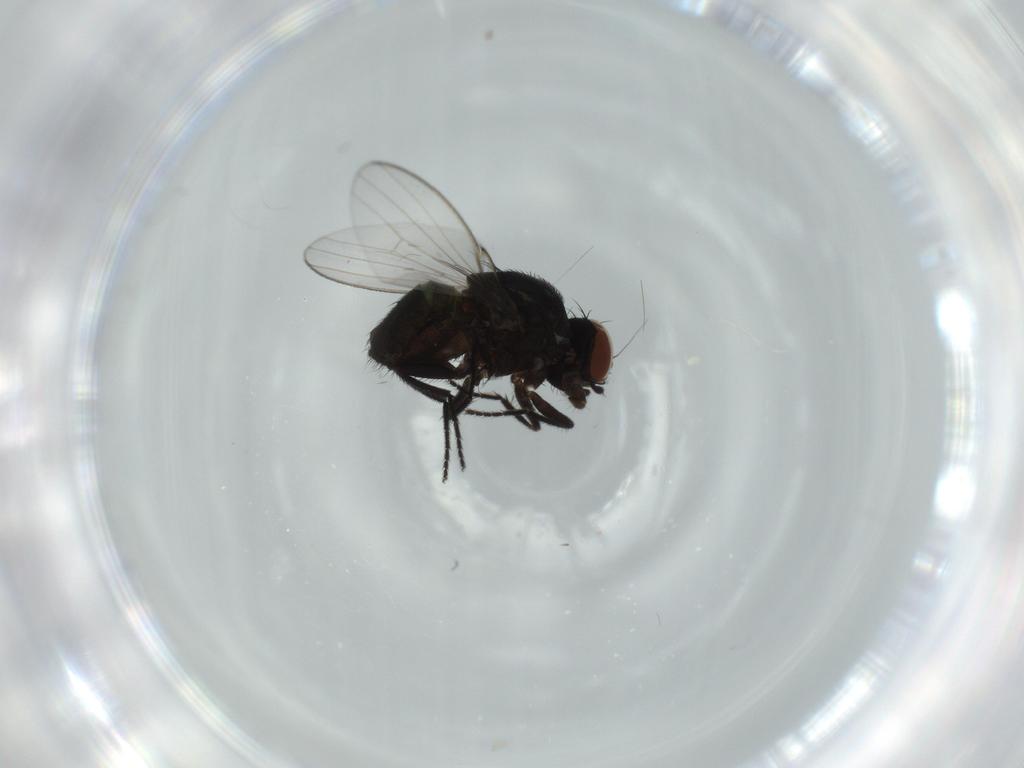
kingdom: Animalia
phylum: Arthropoda
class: Insecta
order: Diptera
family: Milichiidae
